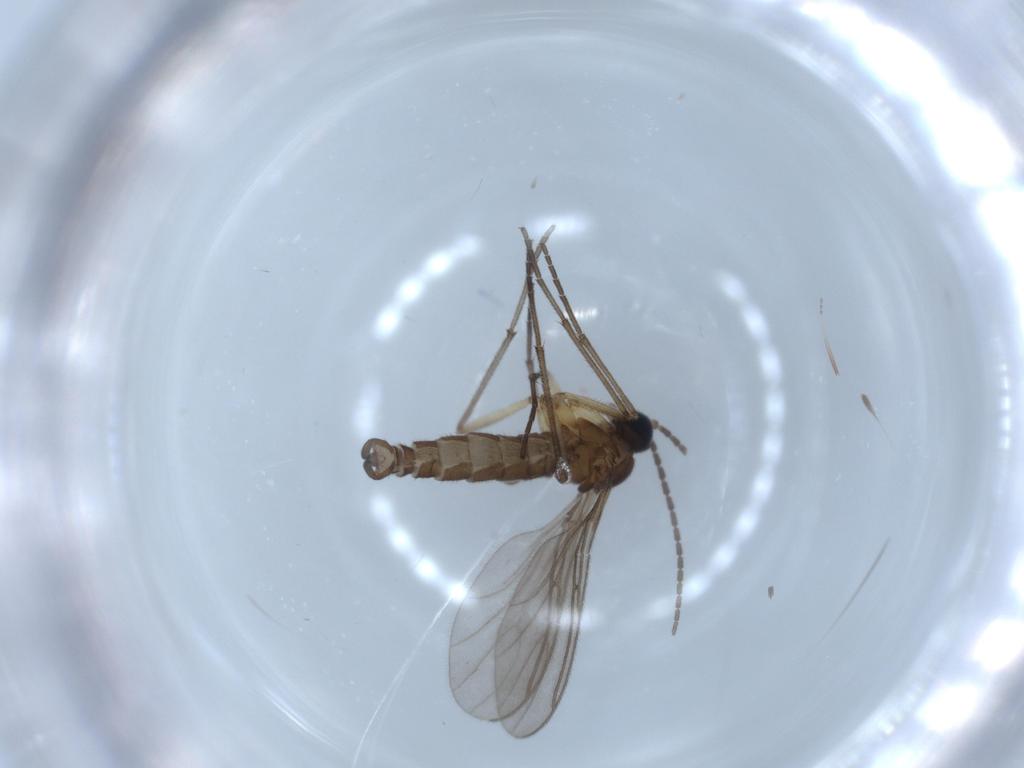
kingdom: Animalia
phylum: Arthropoda
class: Insecta
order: Diptera
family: Sciaridae
